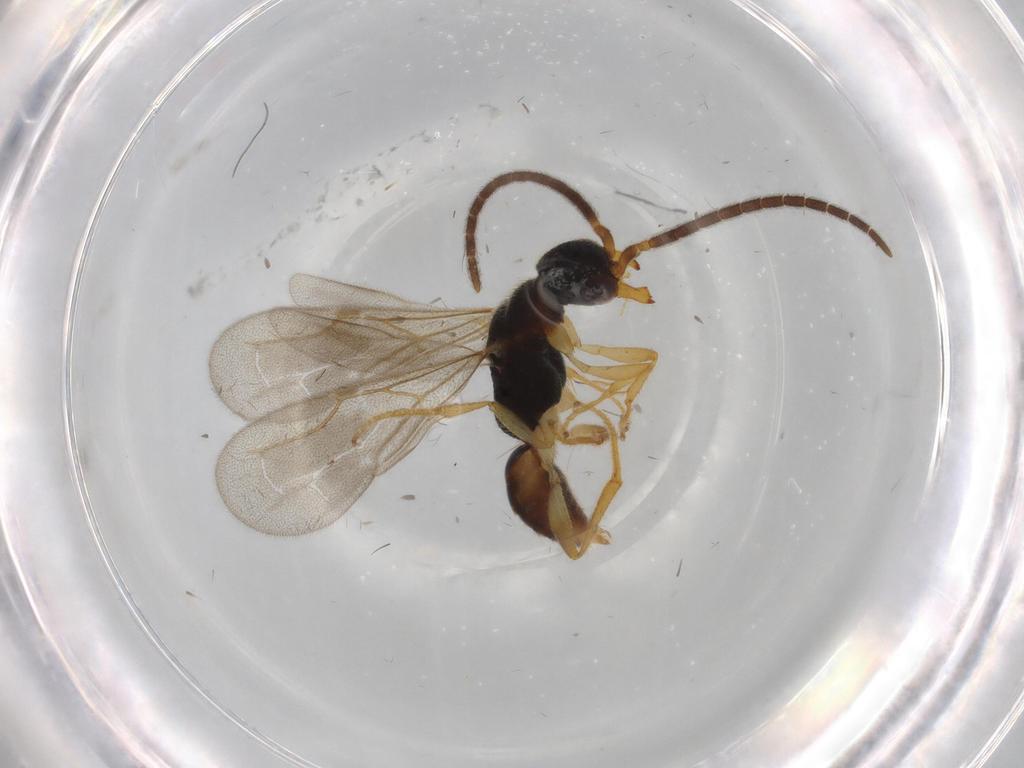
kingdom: Animalia
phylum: Arthropoda
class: Insecta
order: Hymenoptera
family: Bethylidae
